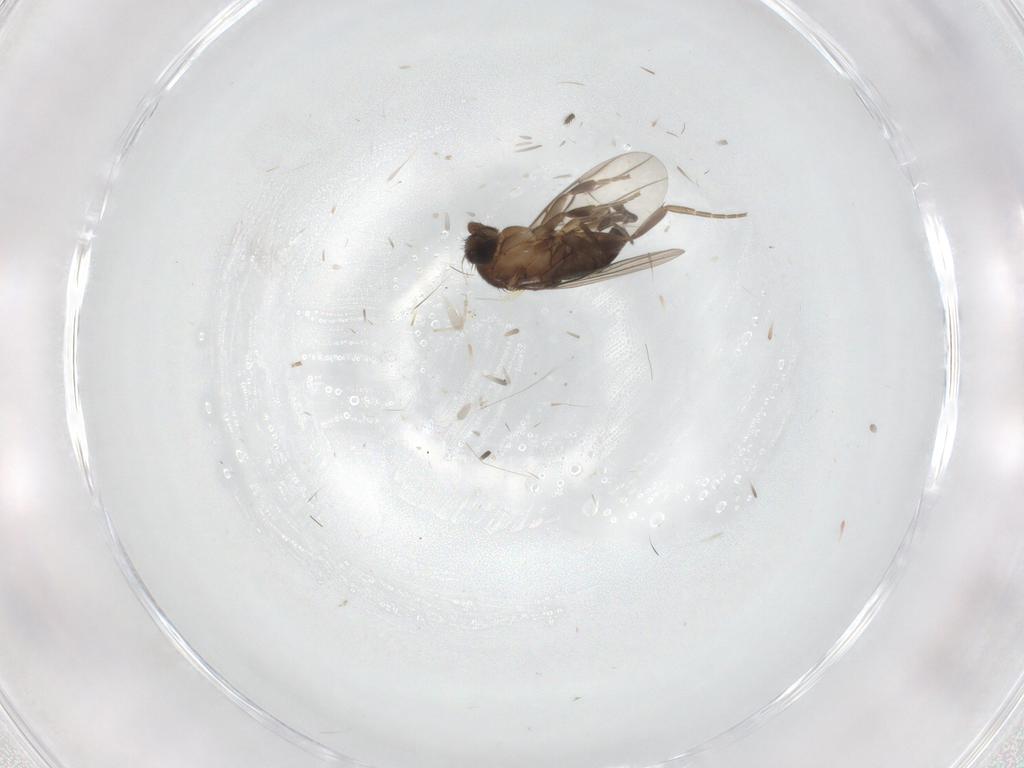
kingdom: Animalia
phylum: Arthropoda
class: Insecta
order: Diptera
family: Phoridae
